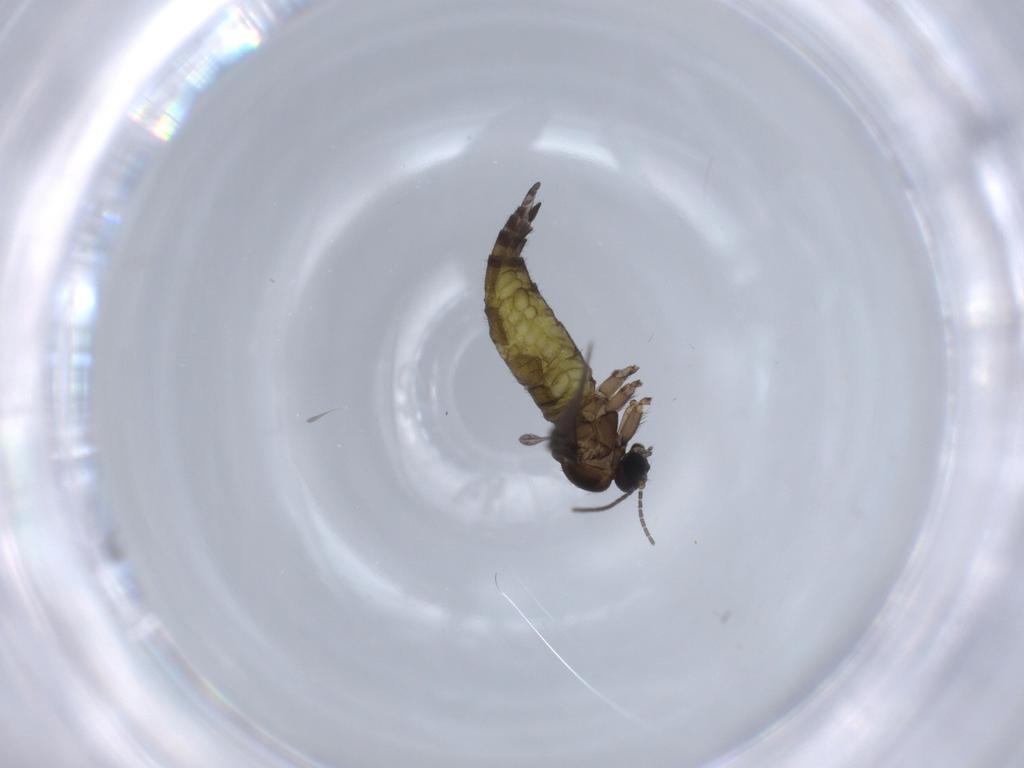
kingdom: Animalia
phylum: Arthropoda
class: Insecta
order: Diptera
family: Sciaridae
